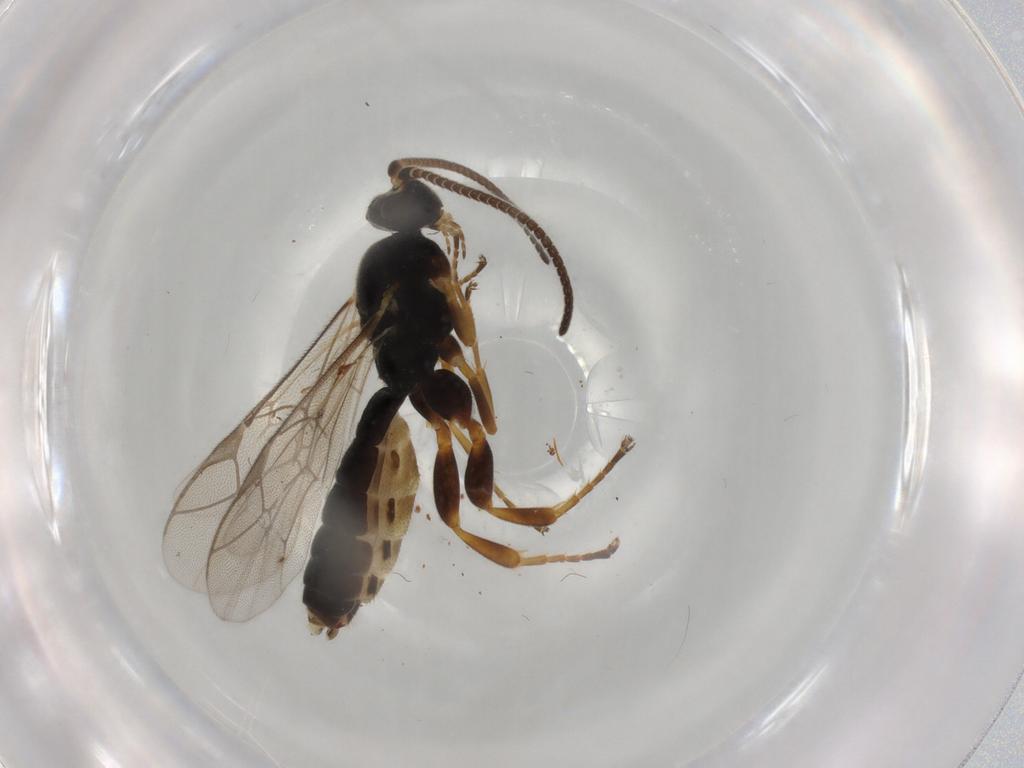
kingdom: Animalia
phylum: Arthropoda
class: Insecta
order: Hymenoptera
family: Ichneumonidae
